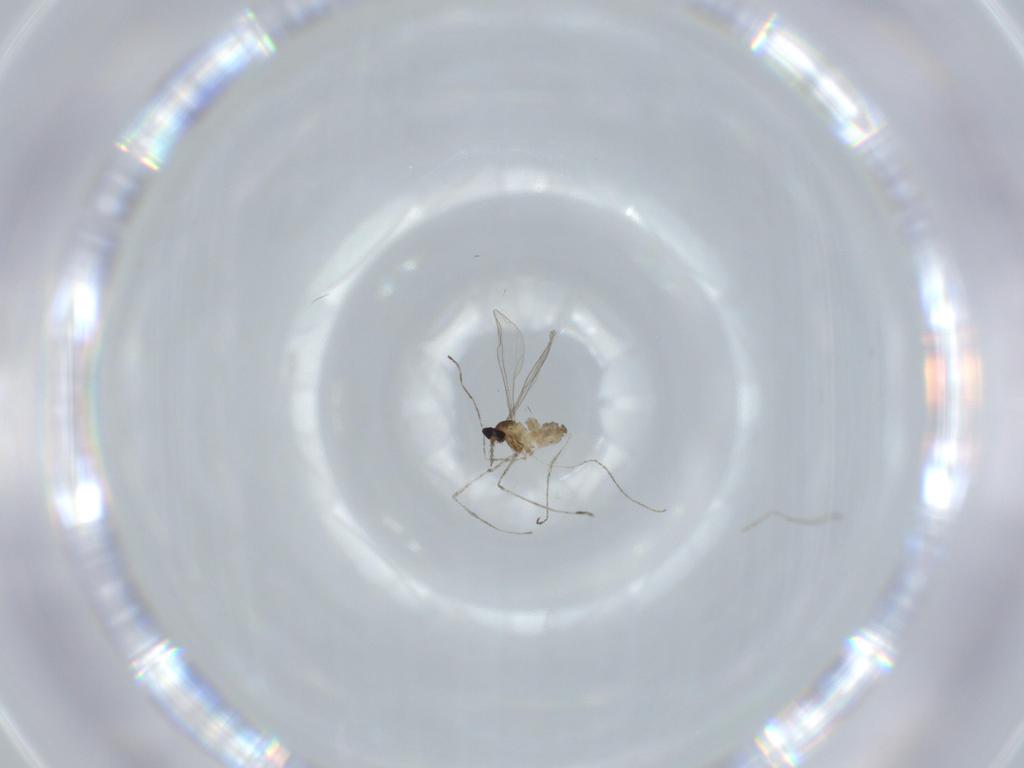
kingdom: Animalia
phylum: Arthropoda
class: Insecta
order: Diptera
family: Cecidomyiidae
